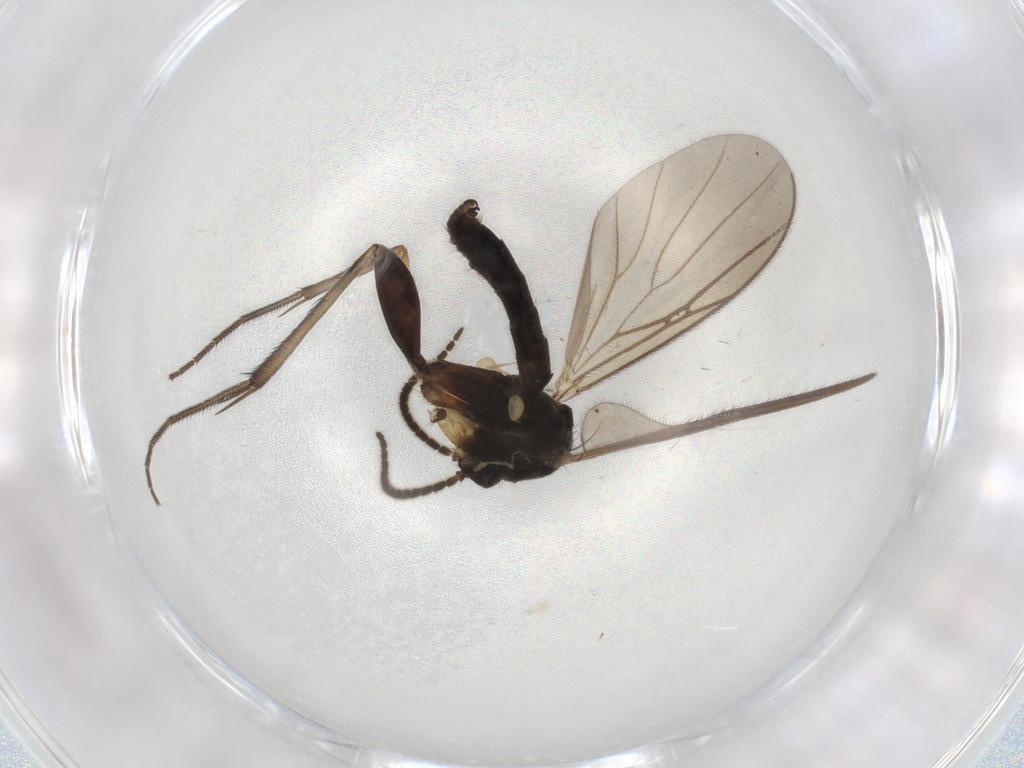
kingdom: Animalia
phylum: Arthropoda
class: Insecta
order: Diptera
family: Mycetophilidae
